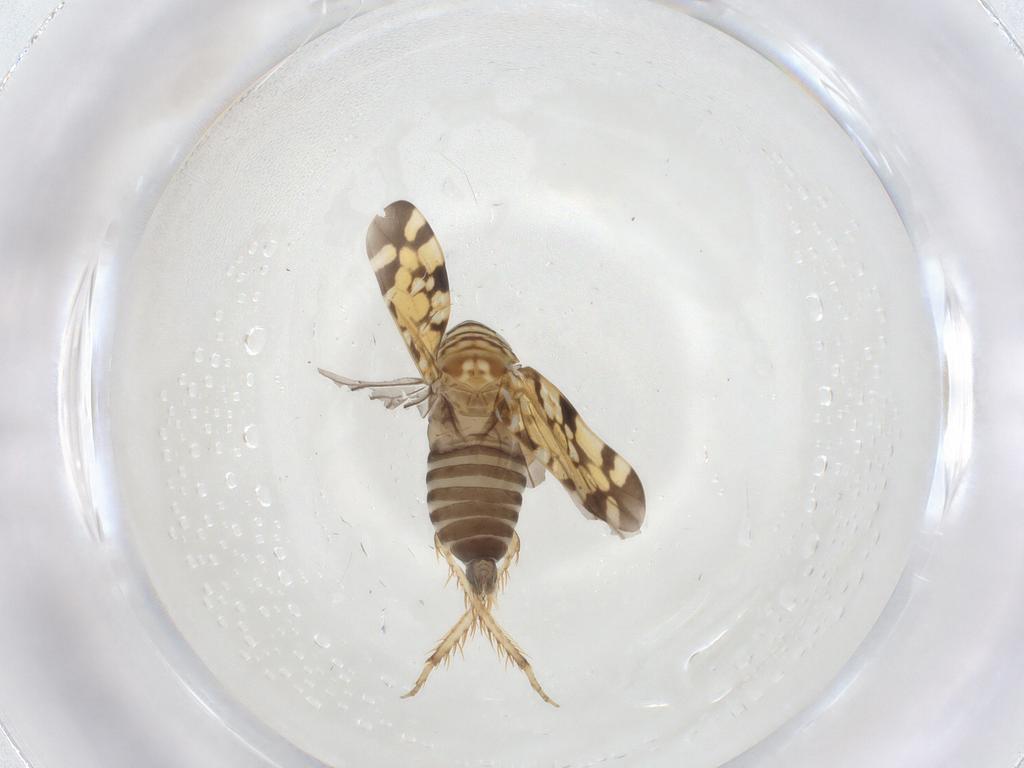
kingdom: Animalia
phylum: Arthropoda
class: Insecta
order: Hemiptera
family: Cicadellidae
